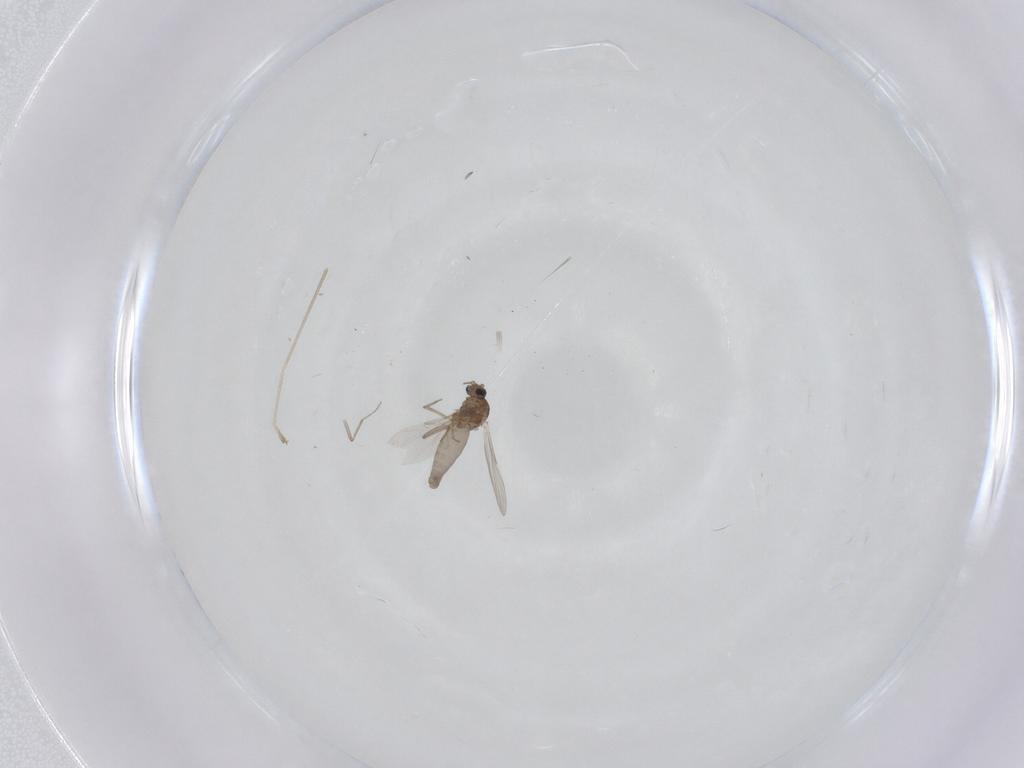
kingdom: Animalia
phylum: Arthropoda
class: Insecta
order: Diptera
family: Cecidomyiidae
